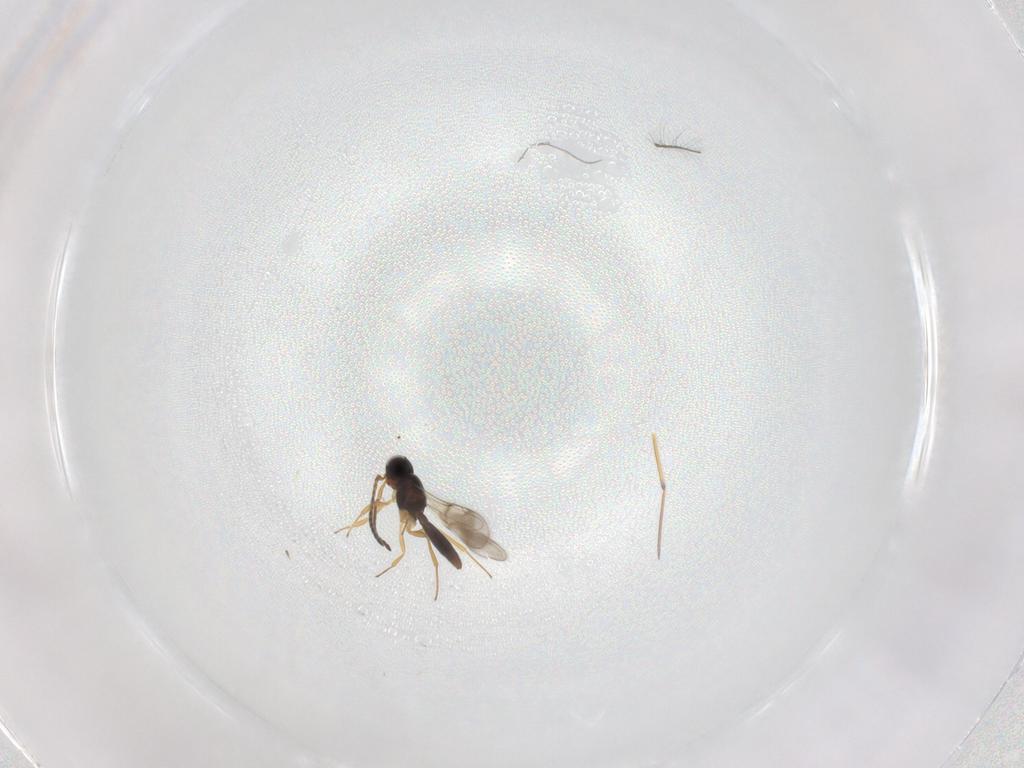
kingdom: Animalia
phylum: Arthropoda
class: Insecta
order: Hymenoptera
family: Scelionidae
